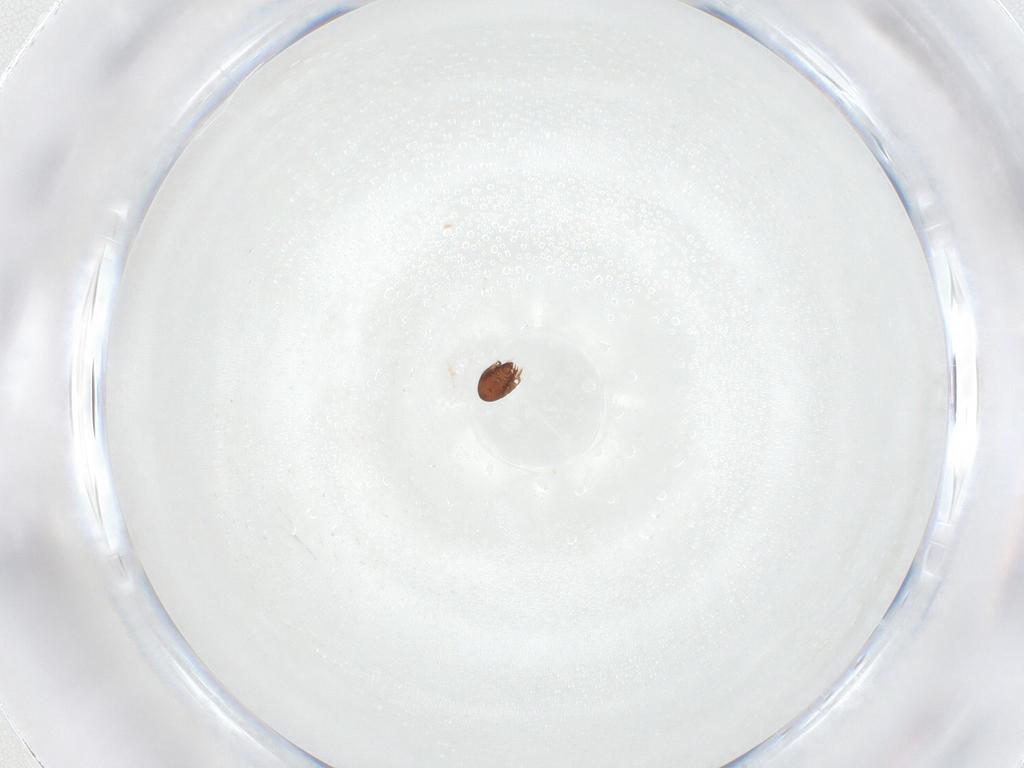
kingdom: Animalia
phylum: Arthropoda
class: Arachnida
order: Sarcoptiformes
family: Ceratozetidae
